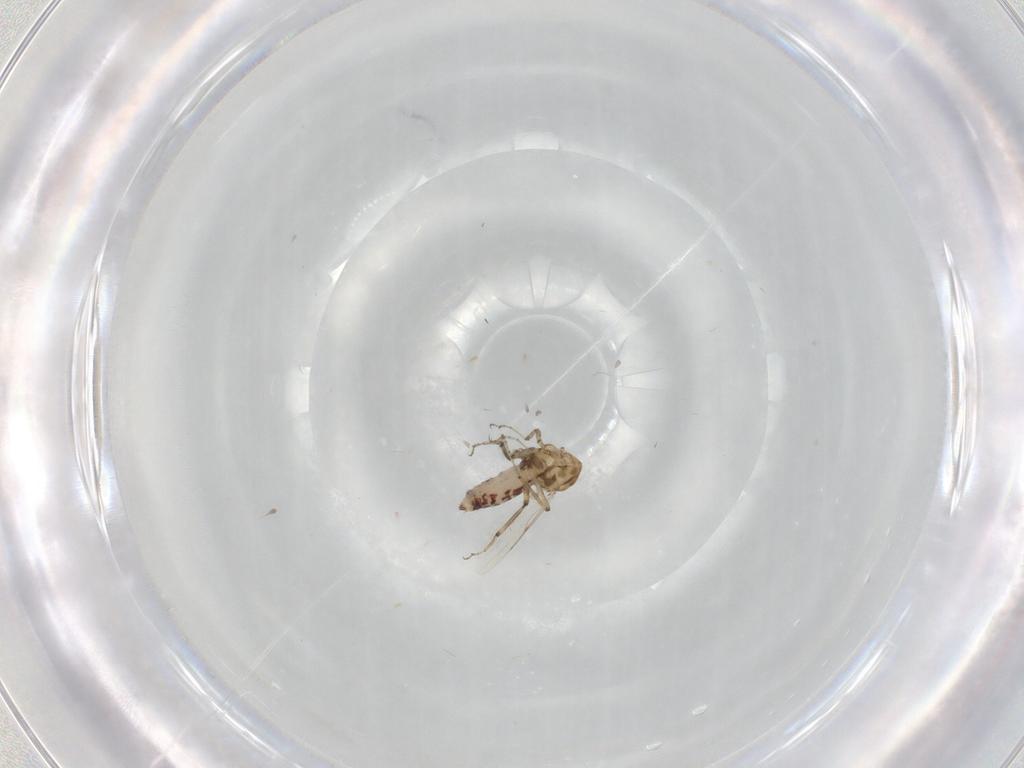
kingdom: Animalia
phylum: Arthropoda
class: Insecta
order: Diptera
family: Ceratopogonidae
